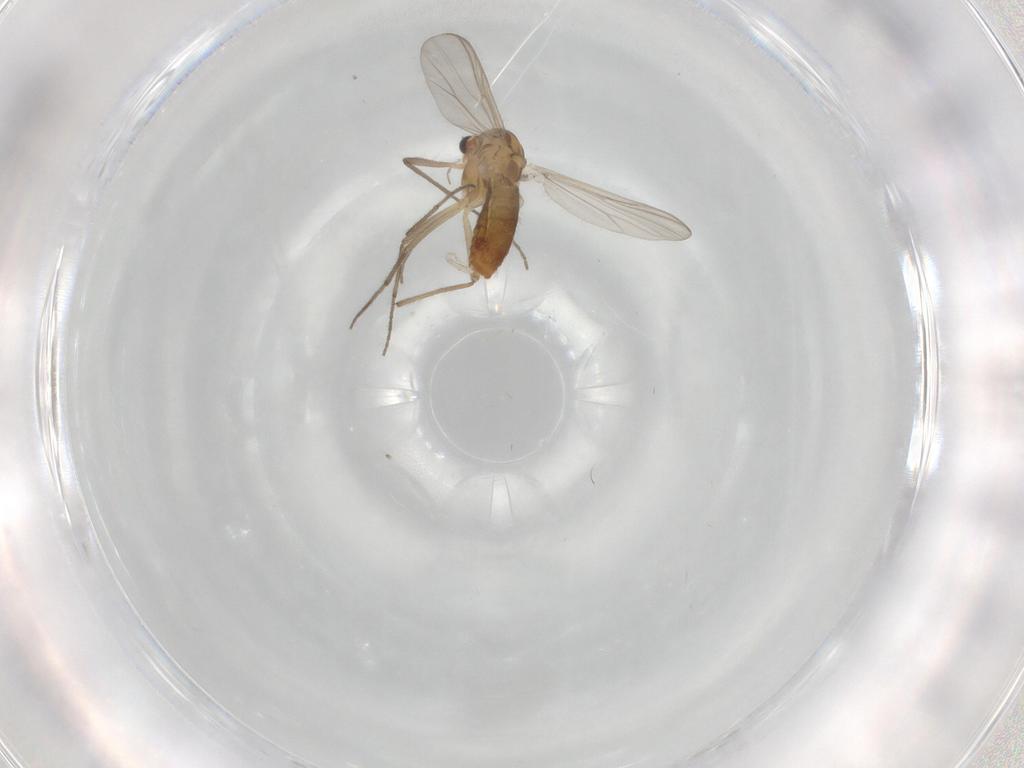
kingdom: Animalia
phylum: Arthropoda
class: Insecta
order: Diptera
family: Chironomidae
